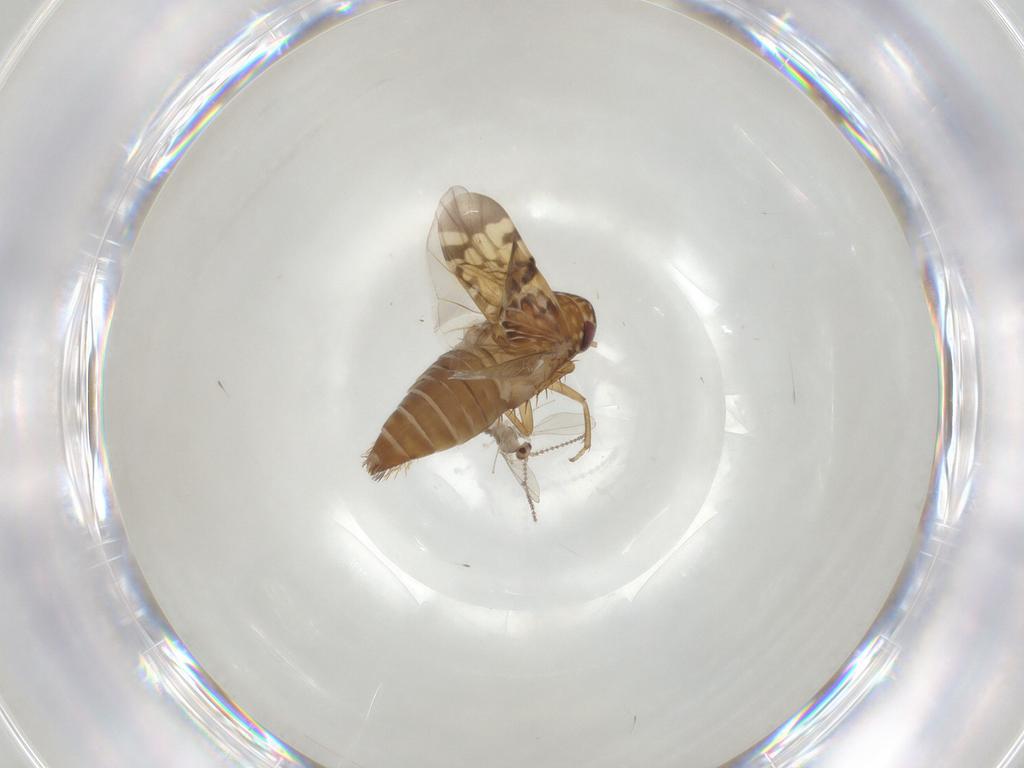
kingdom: Animalia
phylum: Arthropoda
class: Insecta
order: Hemiptera
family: Cicadellidae
